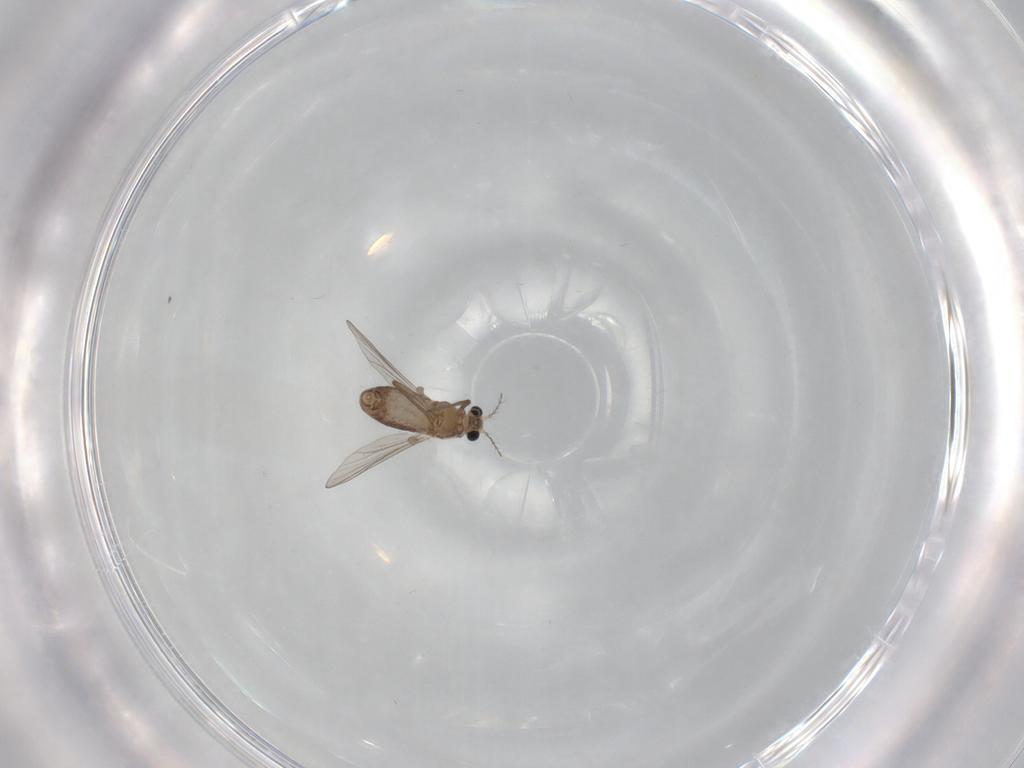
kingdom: Animalia
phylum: Arthropoda
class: Insecta
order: Diptera
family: Chironomidae
